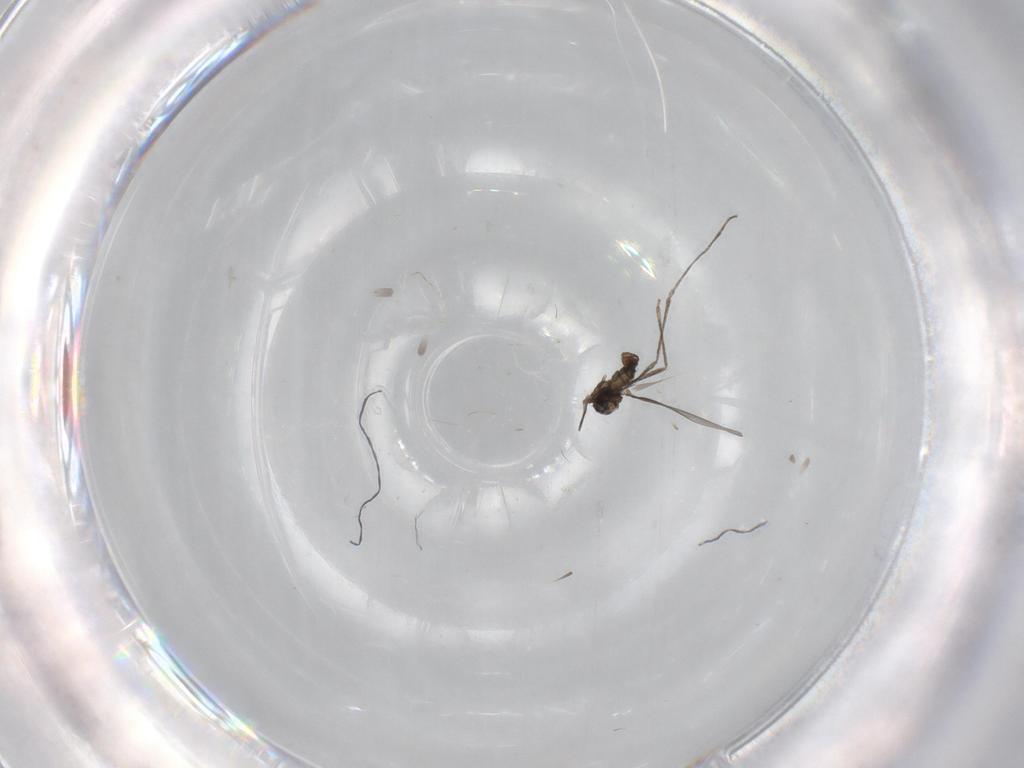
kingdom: Animalia
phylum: Arthropoda
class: Insecta
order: Diptera
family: Cecidomyiidae
